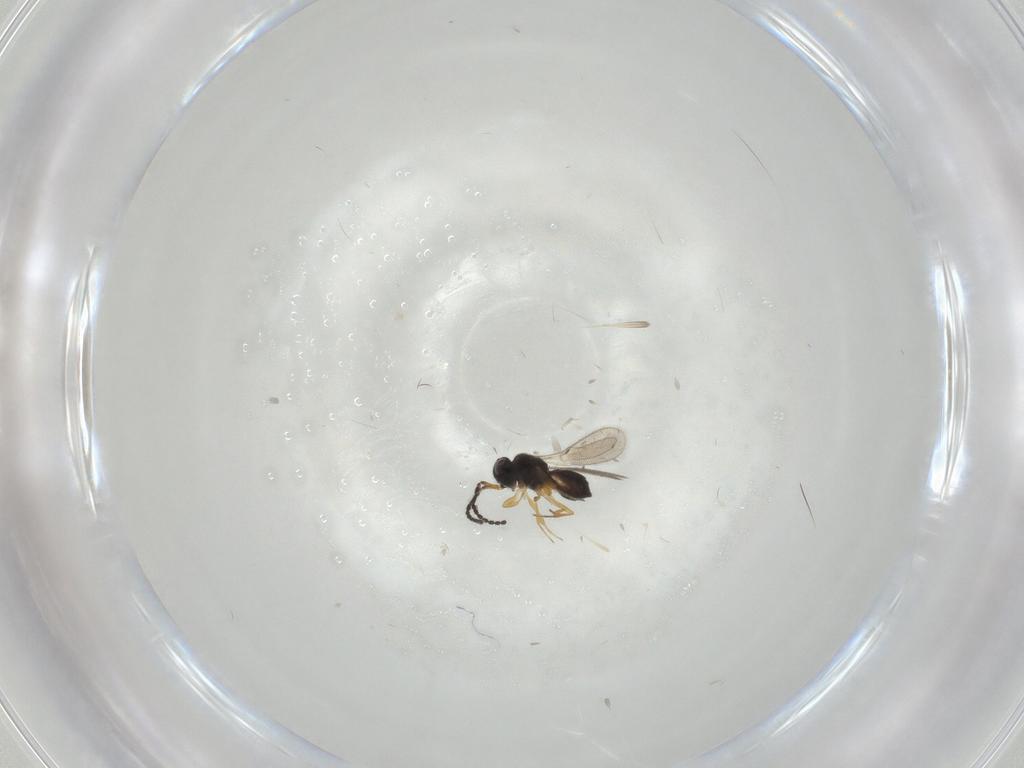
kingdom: Animalia
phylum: Arthropoda
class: Insecta
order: Hymenoptera
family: Scelionidae
